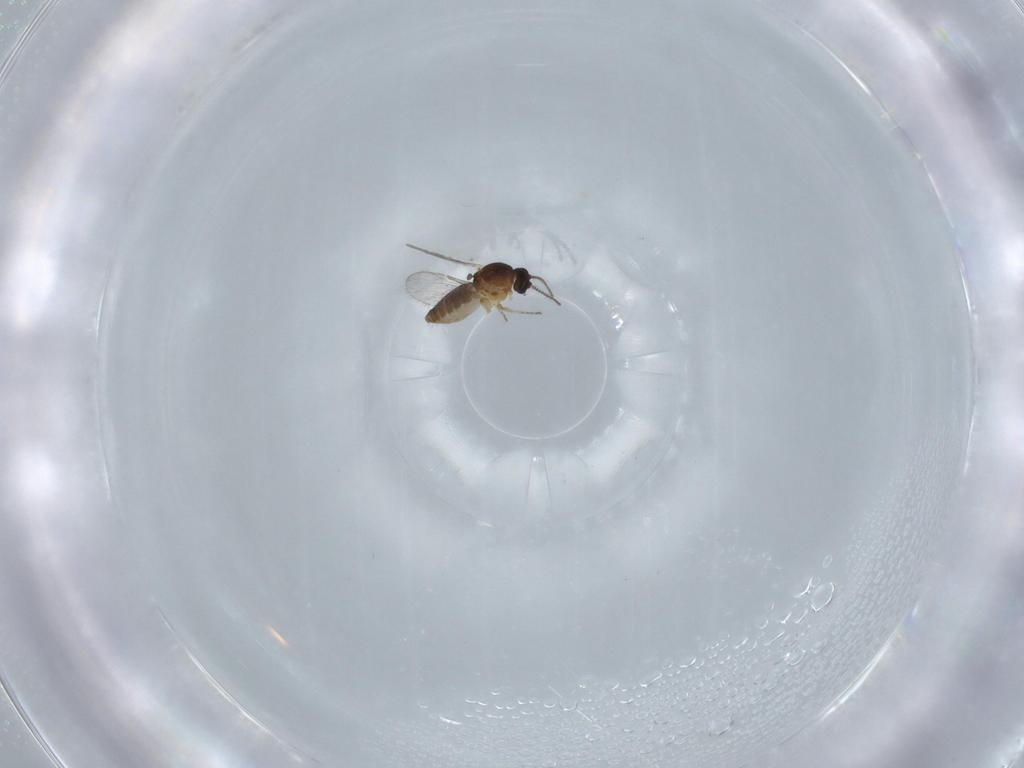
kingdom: Animalia
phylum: Arthropoda
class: Insecta
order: Diptera
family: Ceratopogonidae
